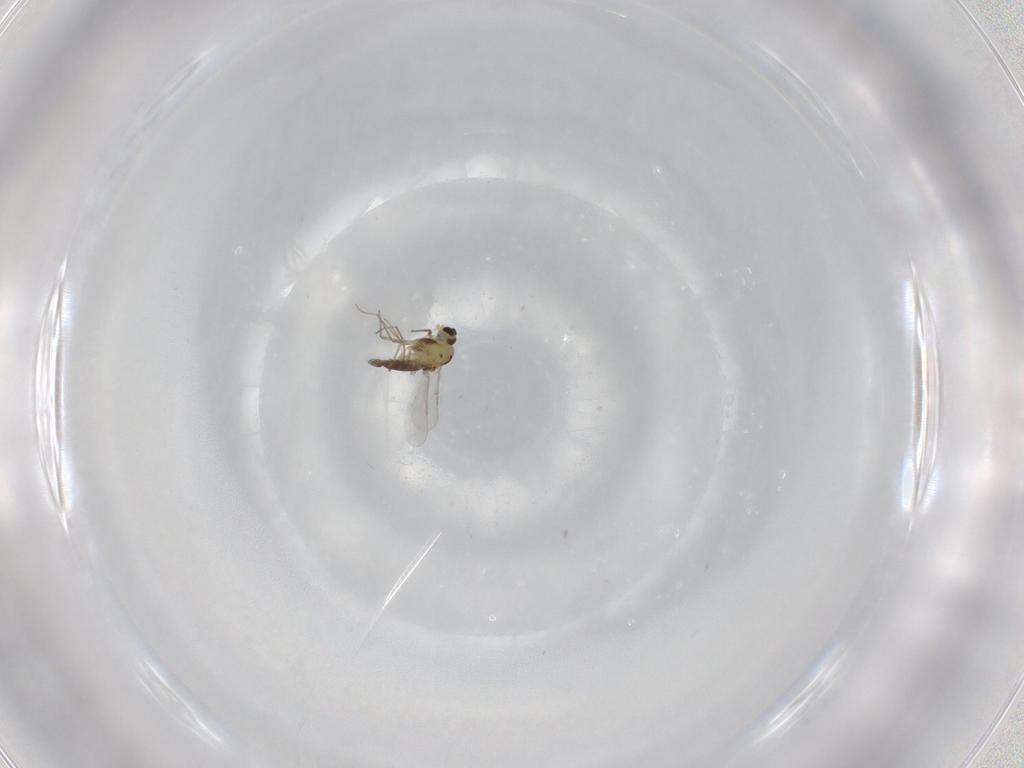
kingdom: Animalia
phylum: Arthropoda
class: Insecta
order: Diptera
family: Chironomidae
